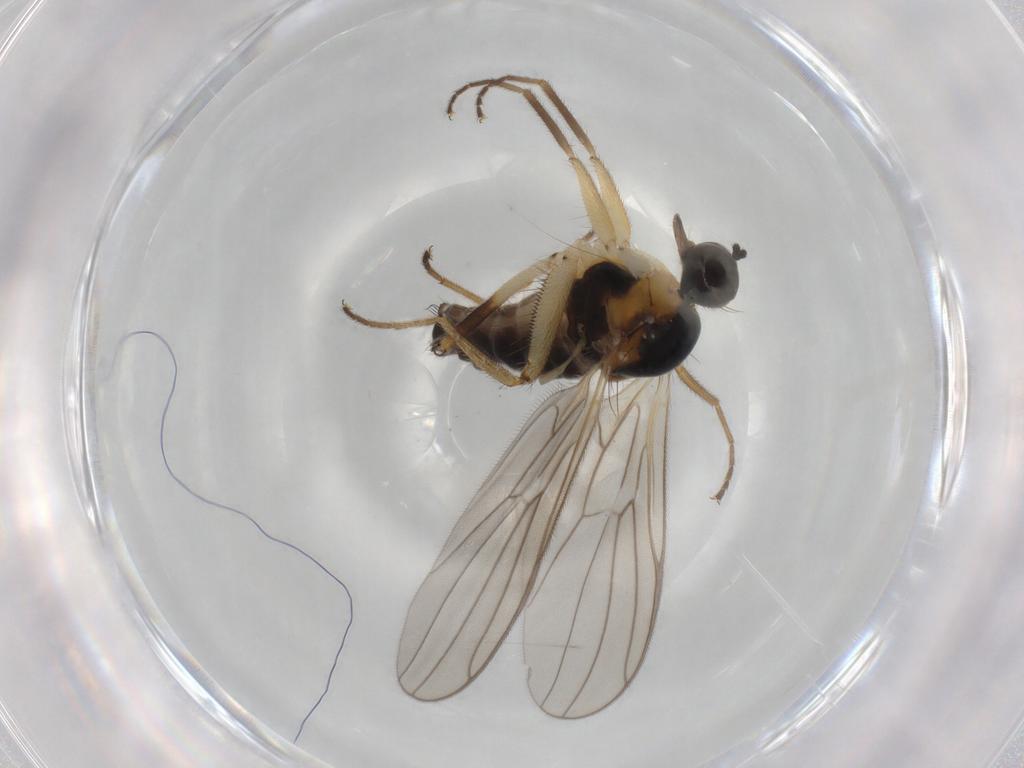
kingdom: Animalia
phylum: Arthropoda
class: Insecta
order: Diptera
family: Hybotidae
